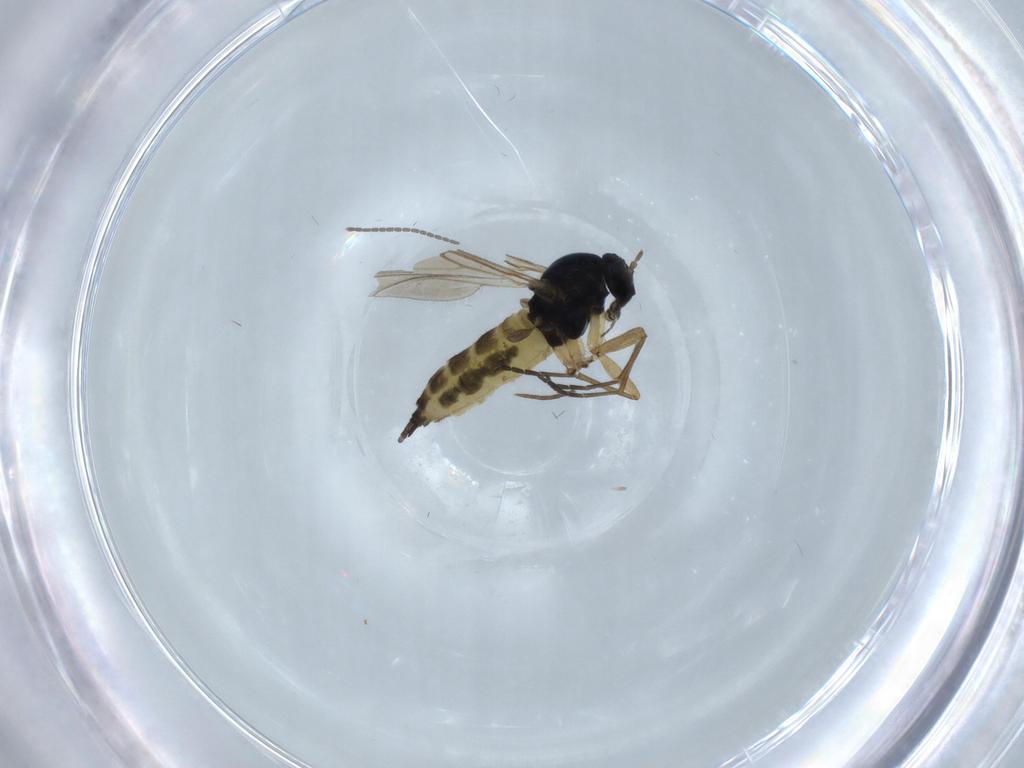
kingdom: Animalia
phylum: Arthropoda
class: Insecta
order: Diptera
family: Sciaridae
